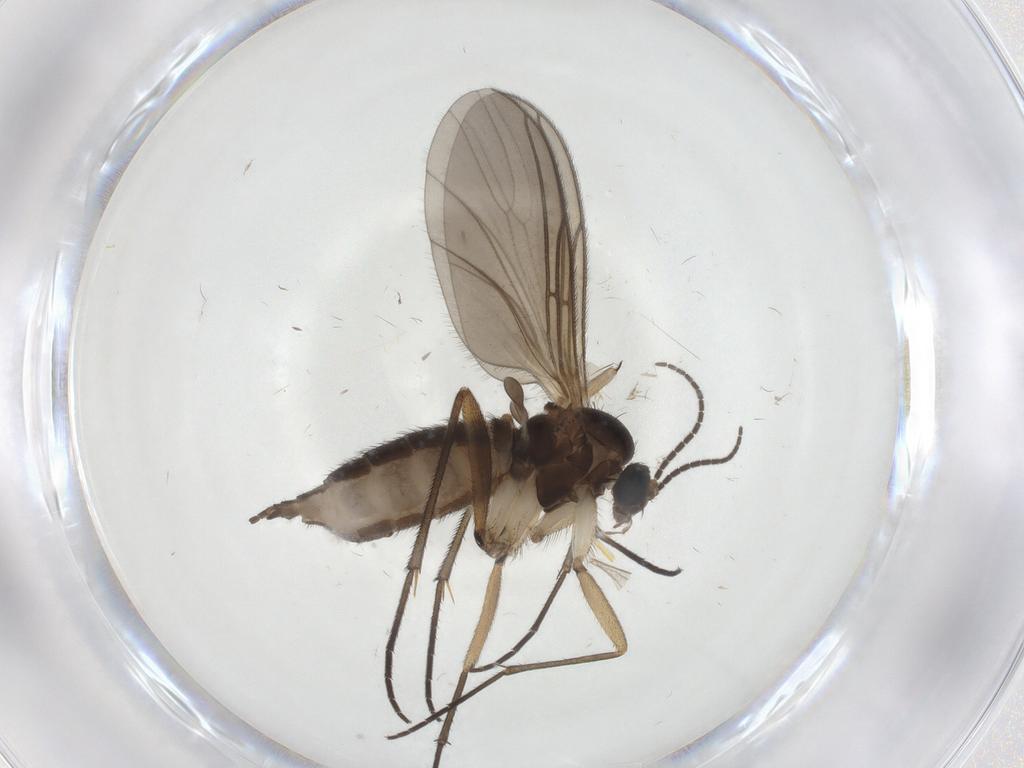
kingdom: Animalia
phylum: Arthropoda
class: Insecta
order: Diptera
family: Sciaridae
